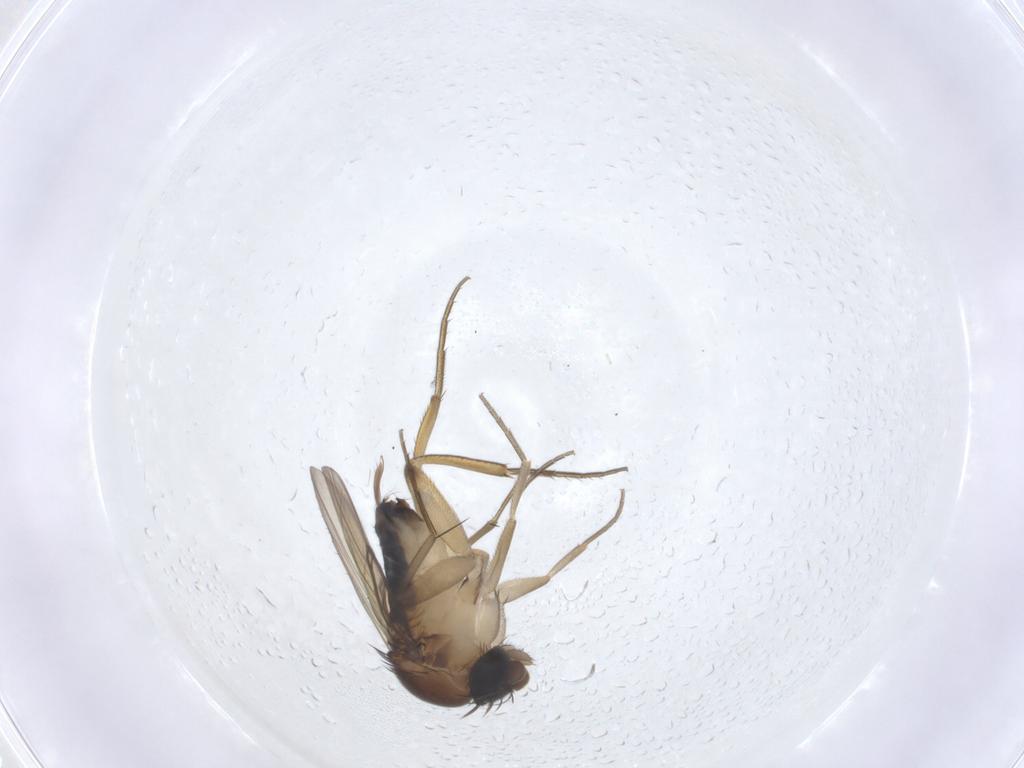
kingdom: Animalia
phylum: Arthropoda
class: Insecta
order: Diptera
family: Phoridae
